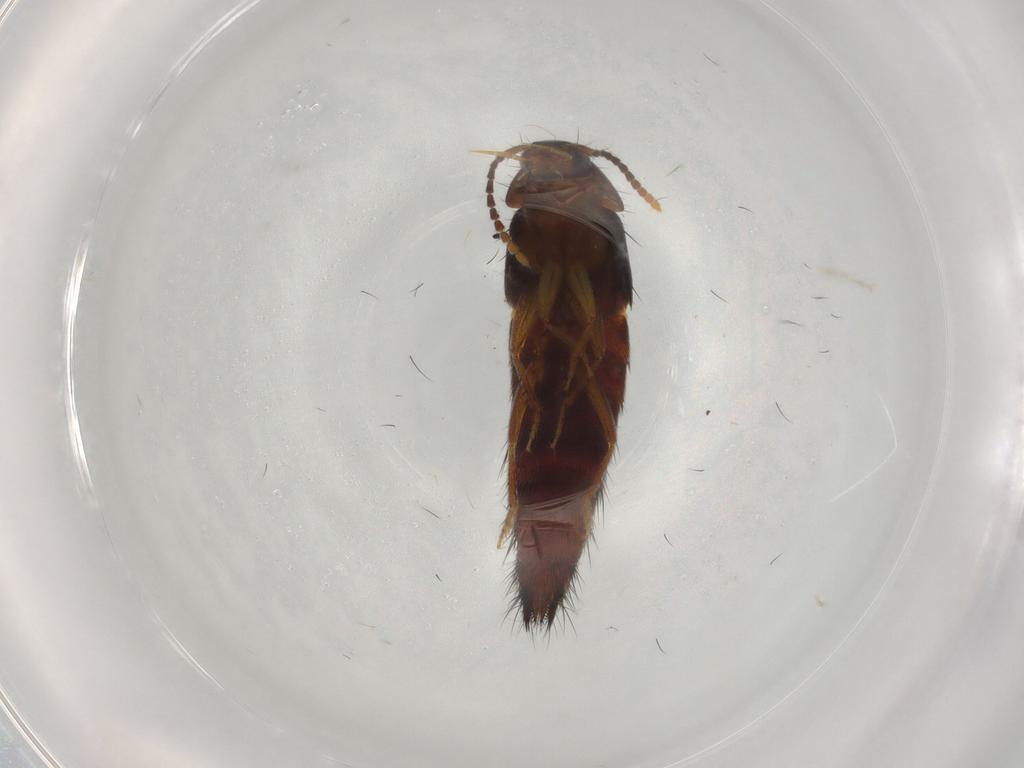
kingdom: Animalia
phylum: Arthropoda
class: Insecta
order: Coleoptera
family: Staphylinidae
